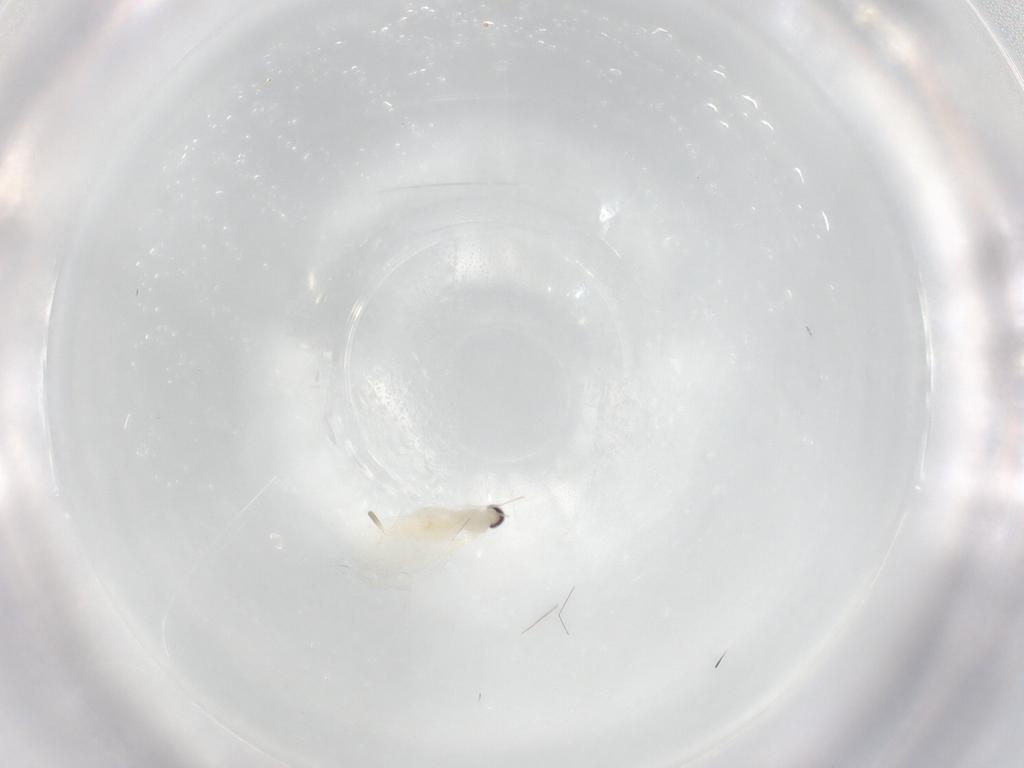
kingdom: Animalia
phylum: Arthropoda
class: Insecta
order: Diptera
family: Cecidomyiidae
